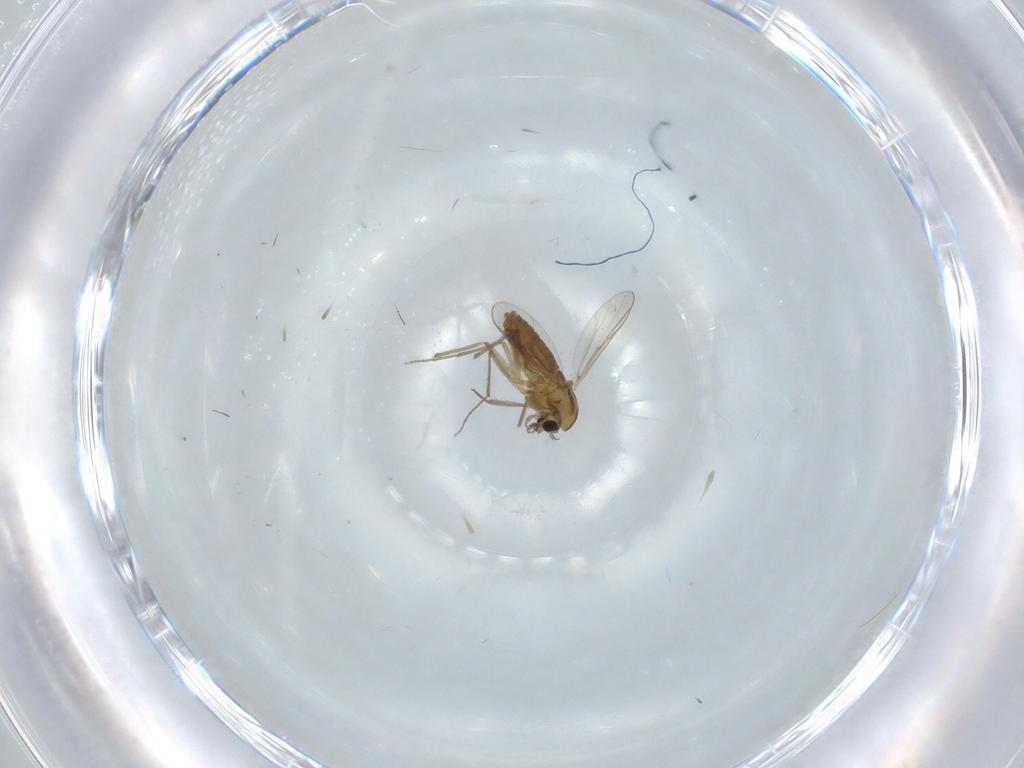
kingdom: Animalia
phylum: Arthropoda
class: Insecta
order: Diptera
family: Chironomidae
